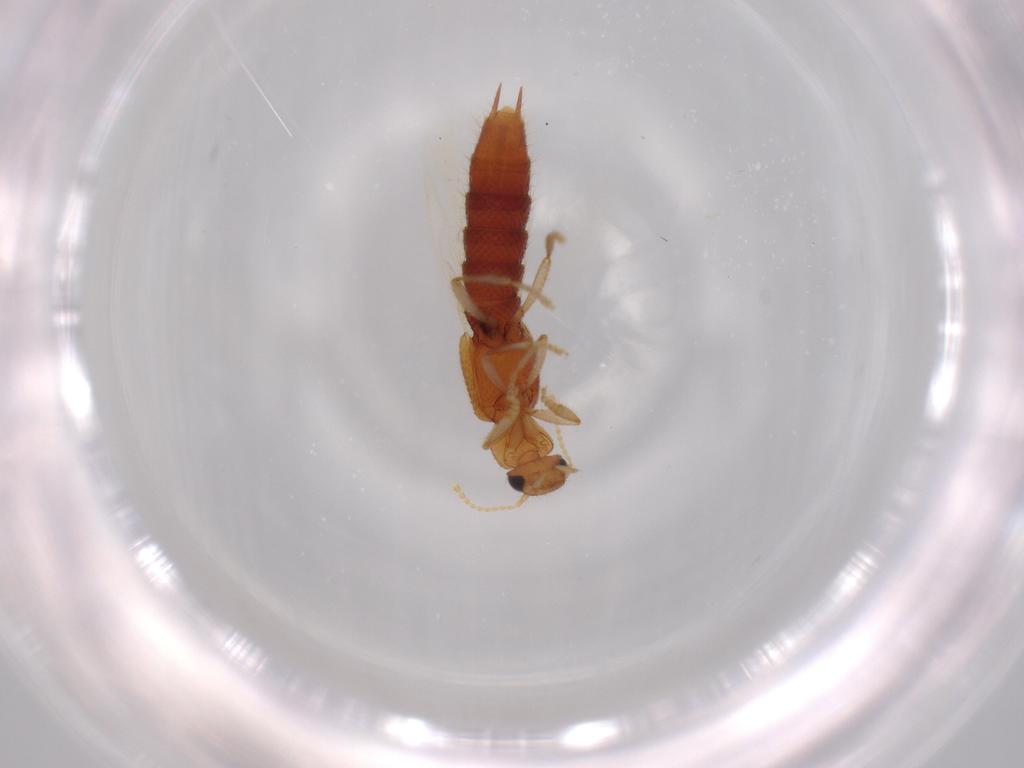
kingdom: Animalia
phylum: Arthropoda
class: Insecta
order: Coleoptera
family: Staphylinidae
